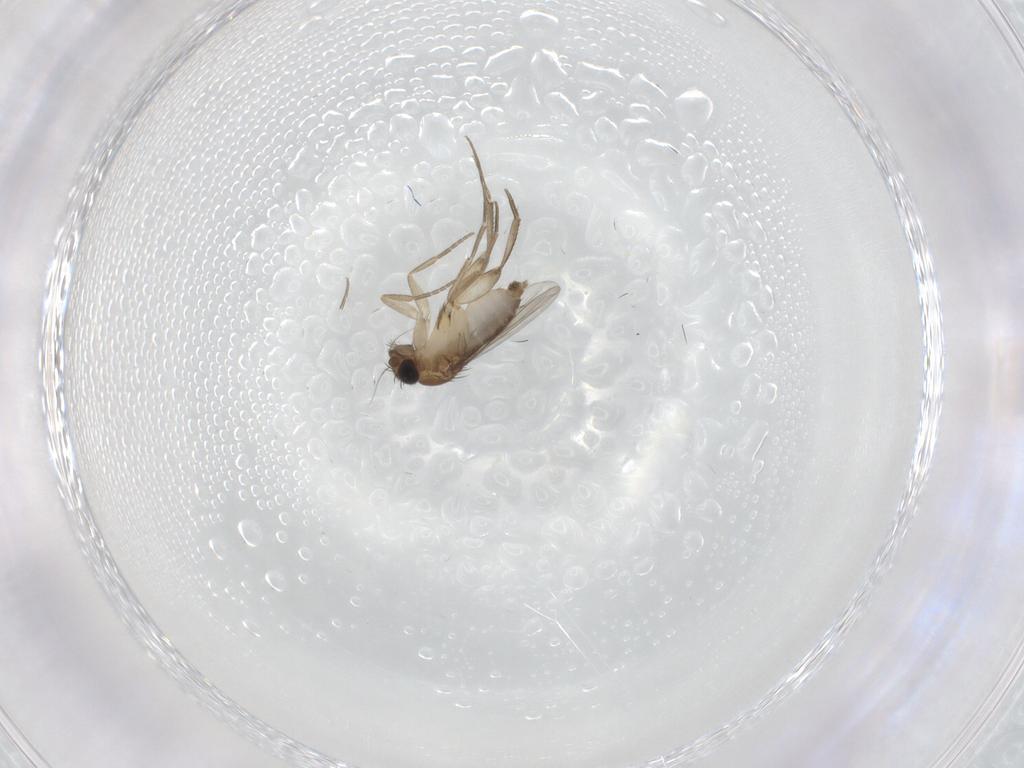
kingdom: Animalia
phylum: Arthropoda
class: Insecta
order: Diptera
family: Phoridae
